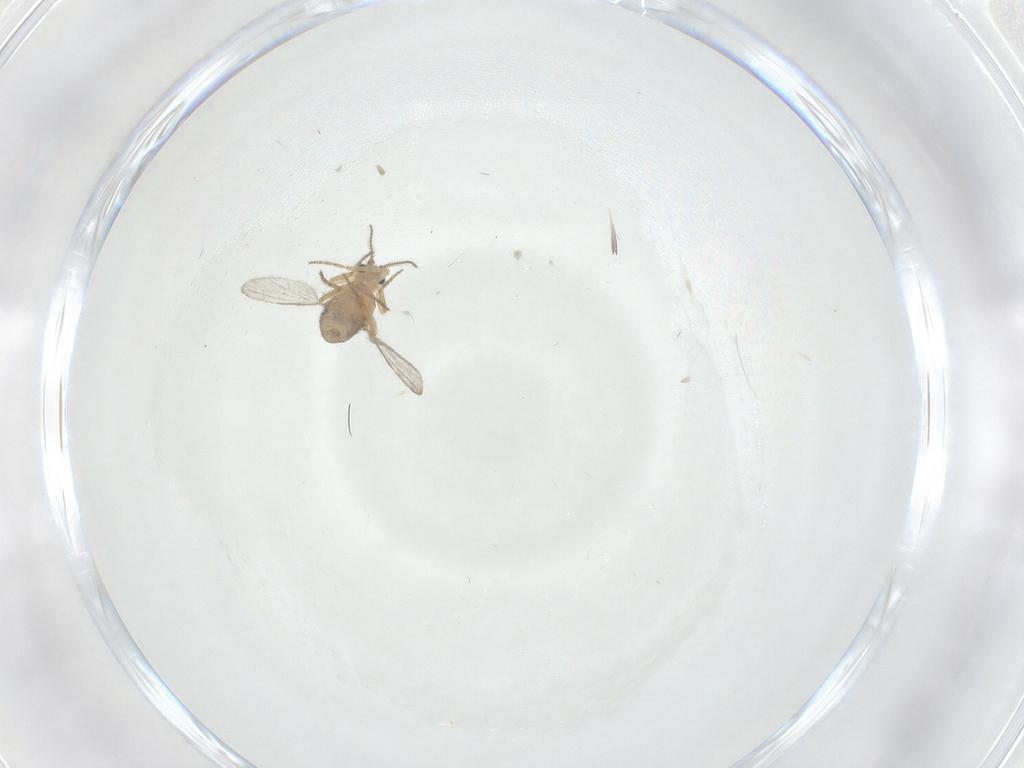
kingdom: Animalia
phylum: Arthropoda
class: Insecta
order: Diptera
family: Ceratopogonidae
